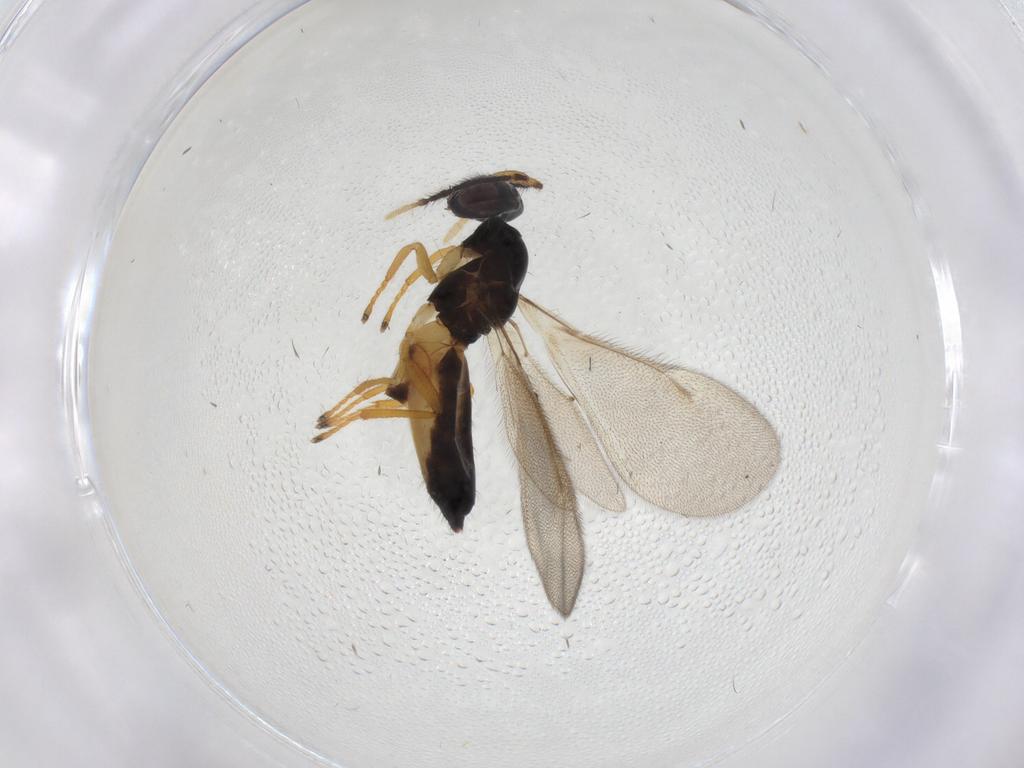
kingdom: Animalia
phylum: Arthropoda
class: Insecta
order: Hymenoptera
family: Eulophidae
